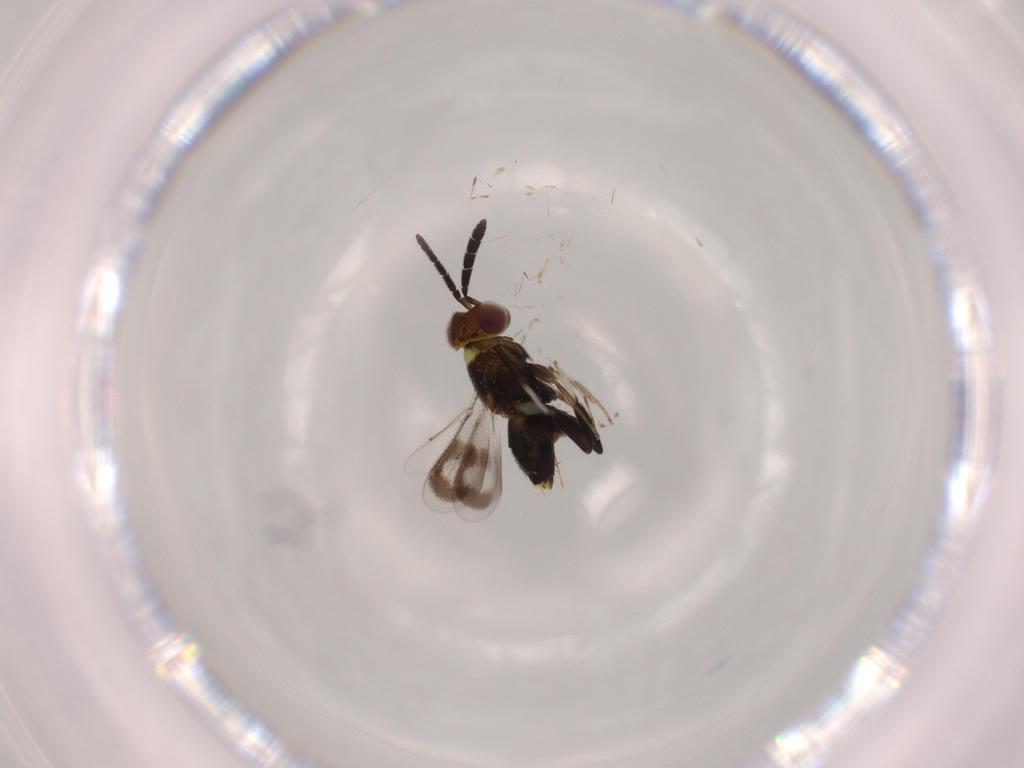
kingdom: Animalia
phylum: Arthropoda
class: Insecta
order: Hymenoptera
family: Aphelinidae
